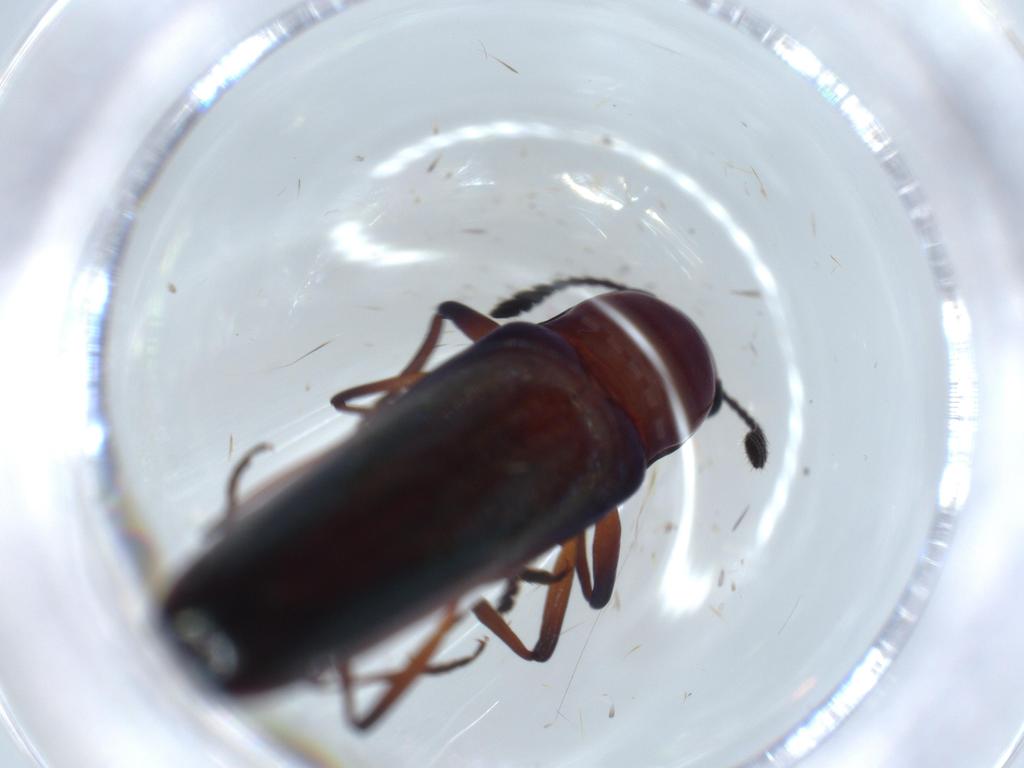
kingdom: Animalia
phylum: Arthropoda
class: Insecta
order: Coleoptera
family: Erotylidae
